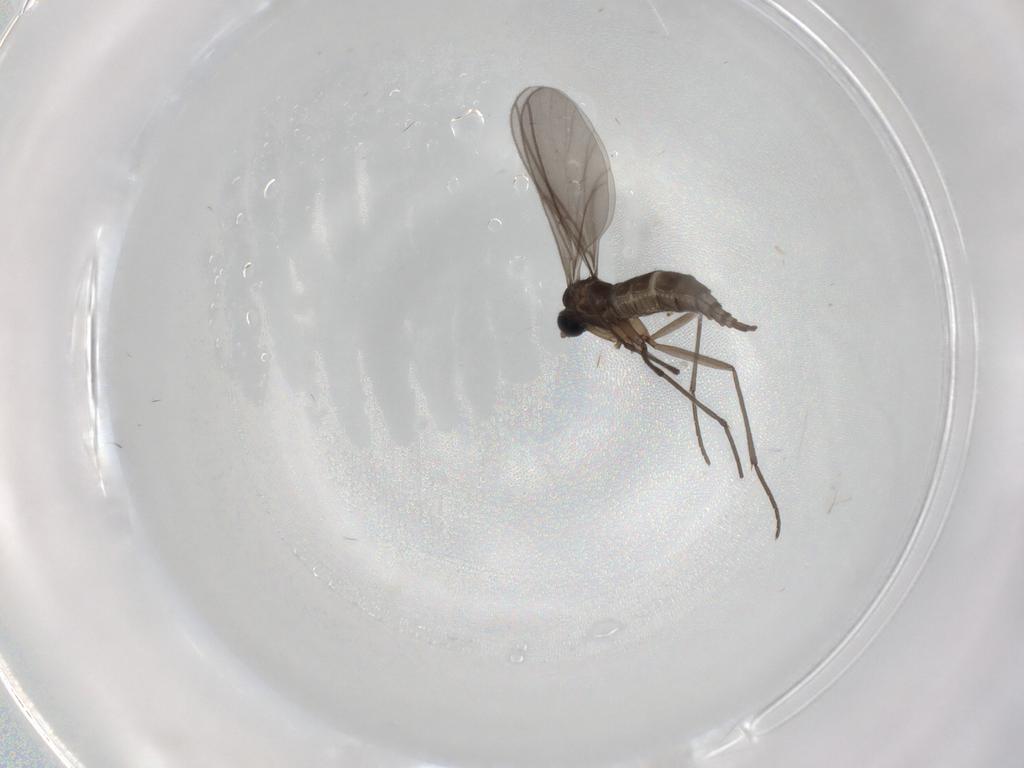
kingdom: Animalia
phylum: Arthropoda
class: Insecta
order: Diptera
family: Sciaridae
